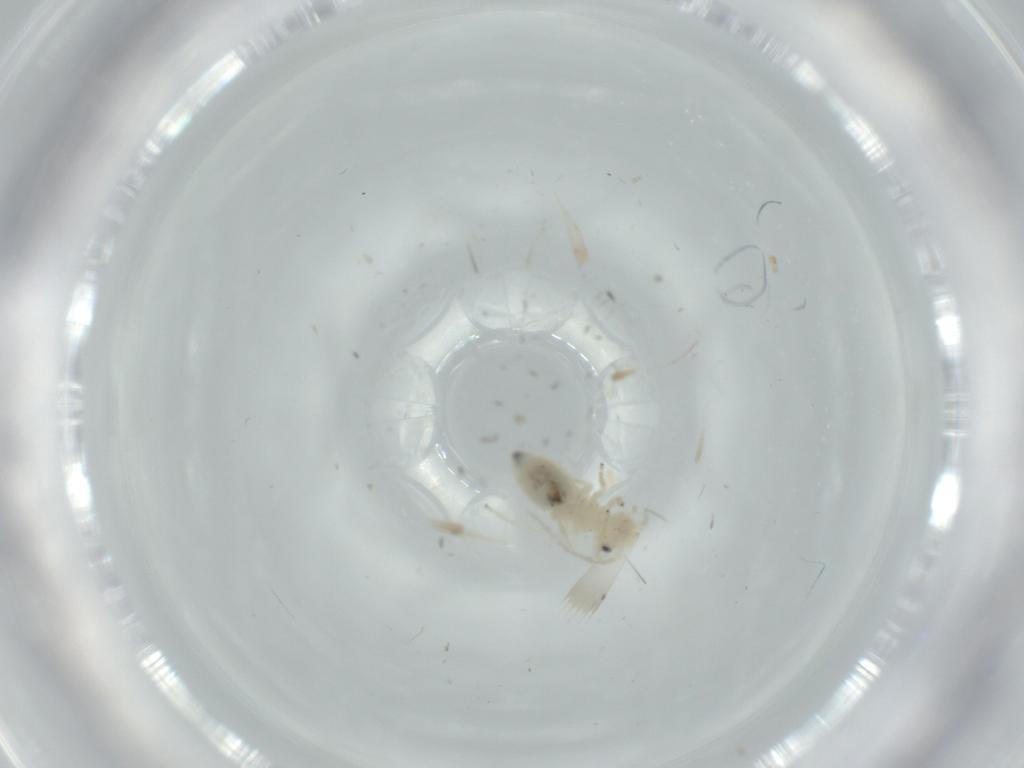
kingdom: Animalia
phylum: Arthropoda
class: Insecta
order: Psocodea
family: Caeciliusidae
